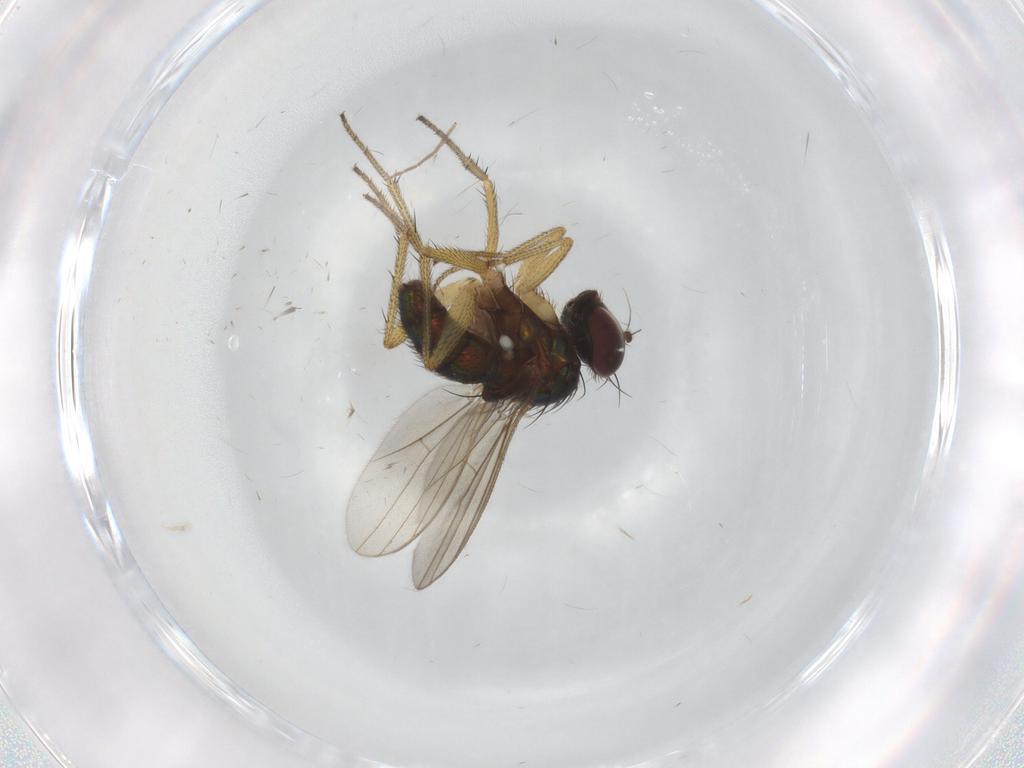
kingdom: Animalia
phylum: Arthropoda
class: Insecta
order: Diptera
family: Dolichopodidae
